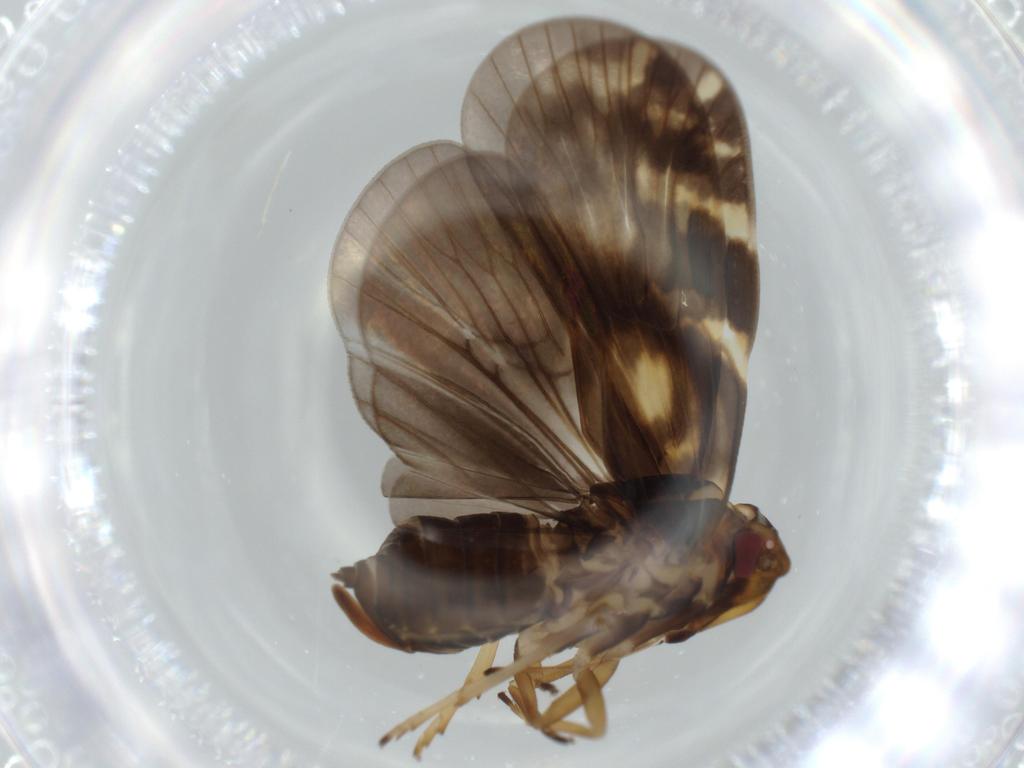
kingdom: Animalia
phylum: Arthropoda
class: Insecta
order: Hemiptera
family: Cixiidae
